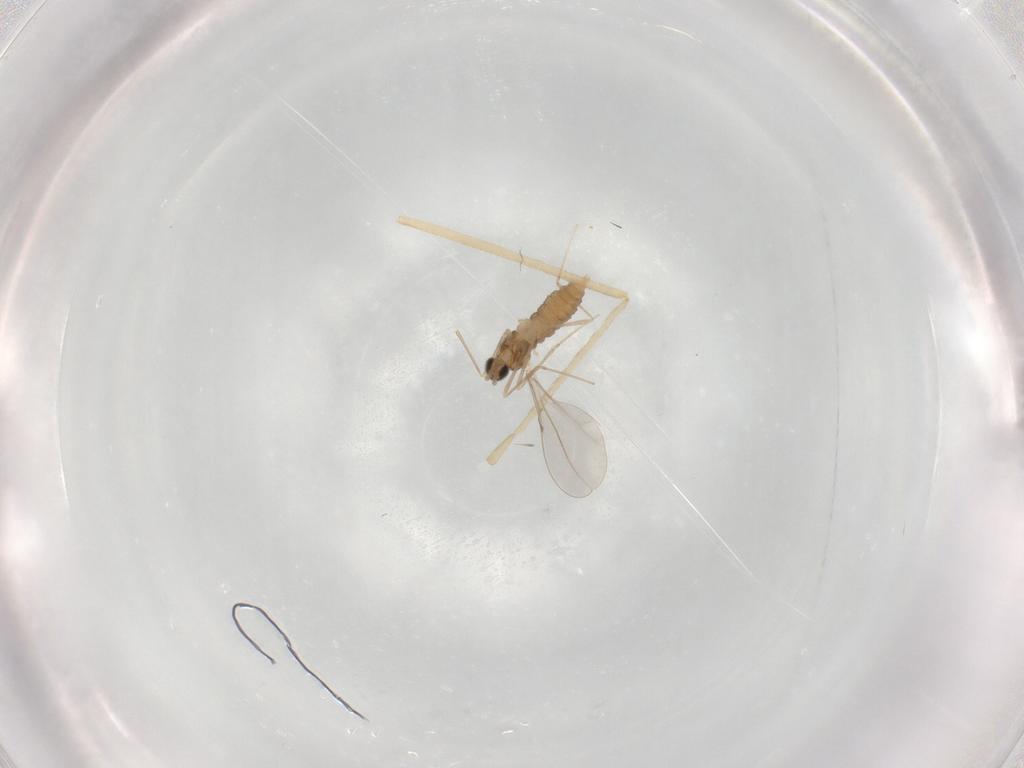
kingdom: Animalia
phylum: Arthropoda
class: Insecta
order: Diptera
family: Cecidomyiidae
